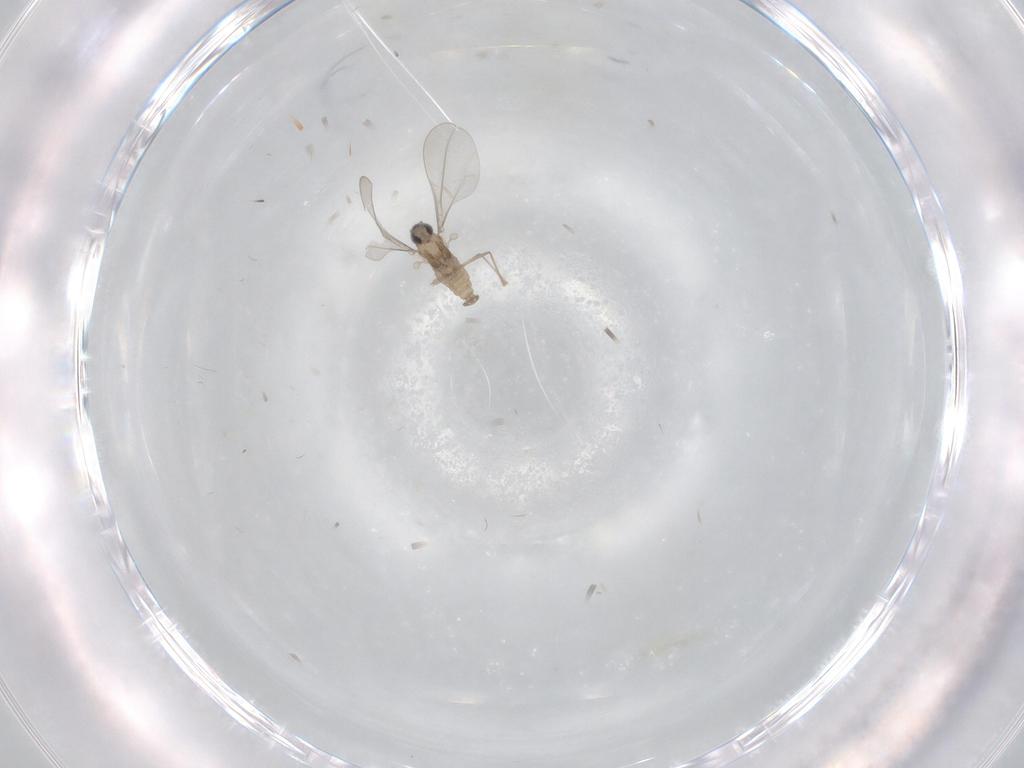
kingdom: Animalia
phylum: Arthropoda
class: Insecta
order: Diptera
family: Cecidomyiidae
